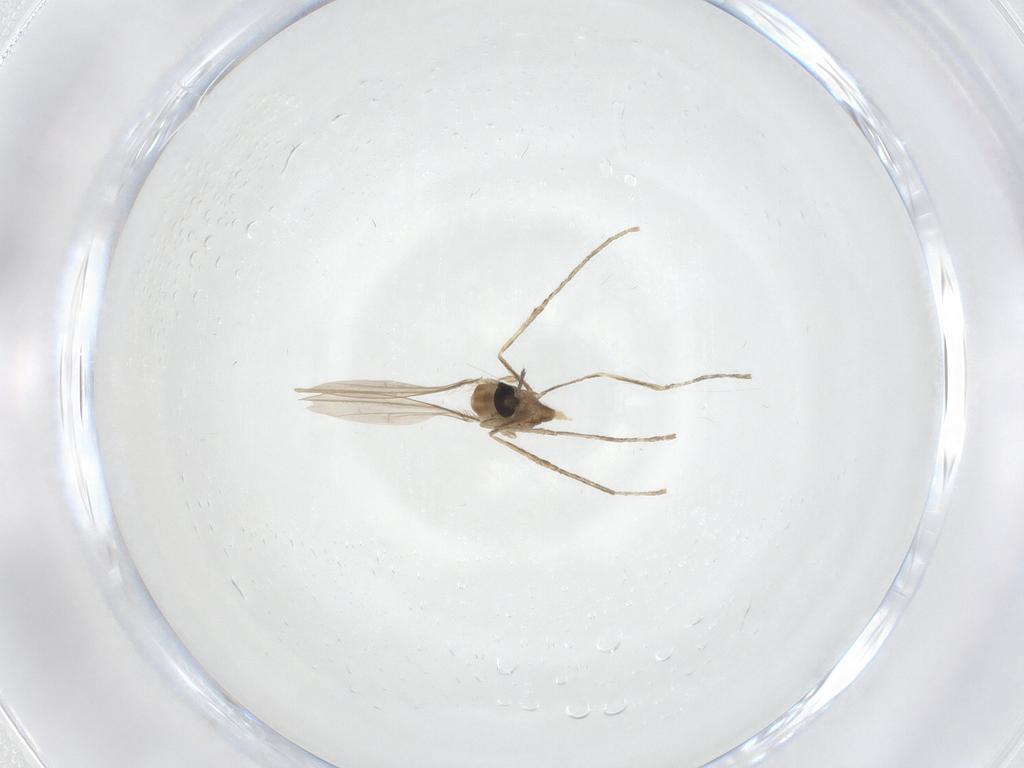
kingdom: Animalia
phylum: Arthropoda
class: Insecta
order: Diptera
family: Cecidomyiidae
